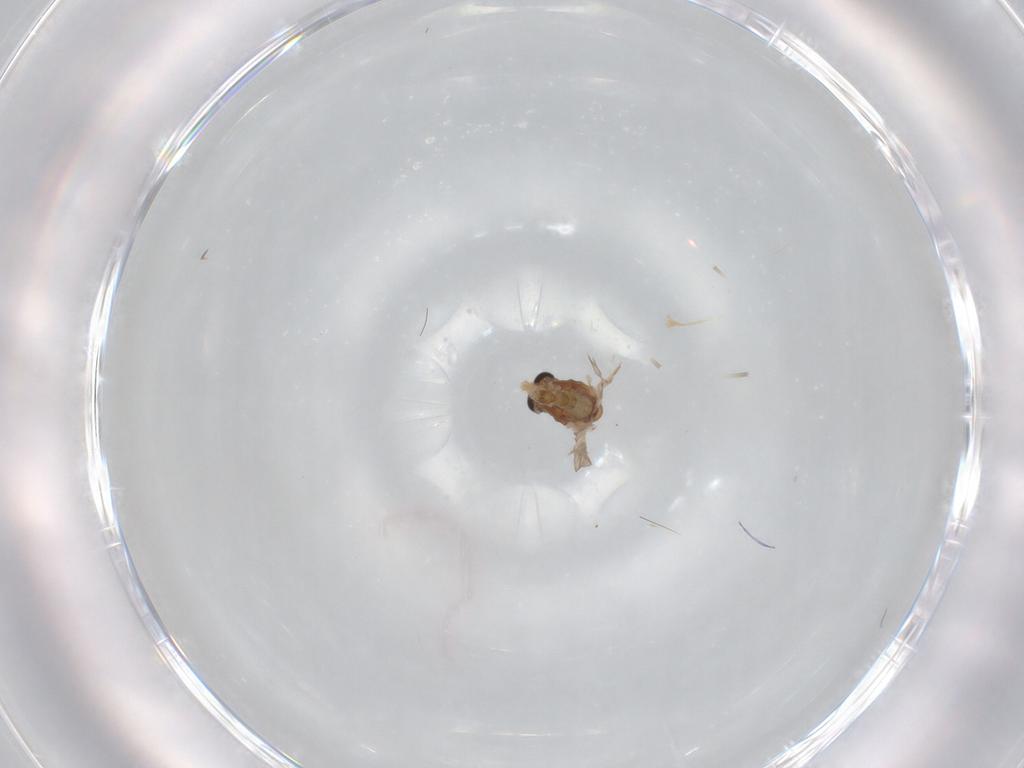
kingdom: Animalia
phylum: Arthropoda
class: Insecta
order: Diptera
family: Chironomidae
